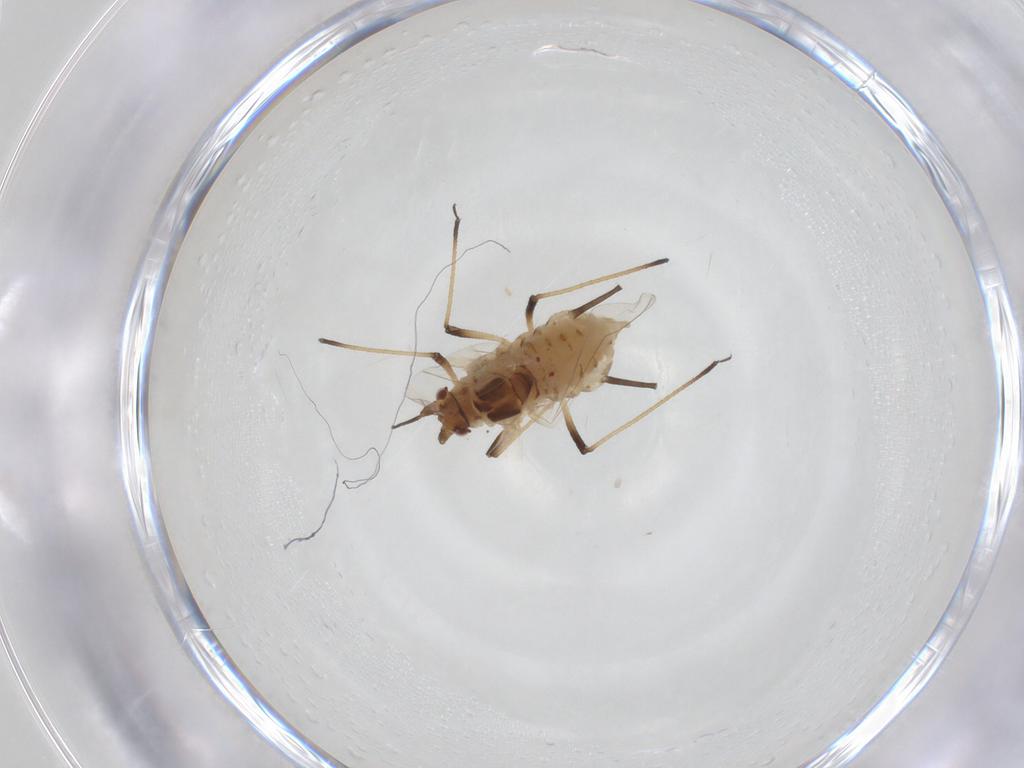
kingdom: Animalia
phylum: Arthropoda
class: Insecta
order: Hemiptera
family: Aphididae
